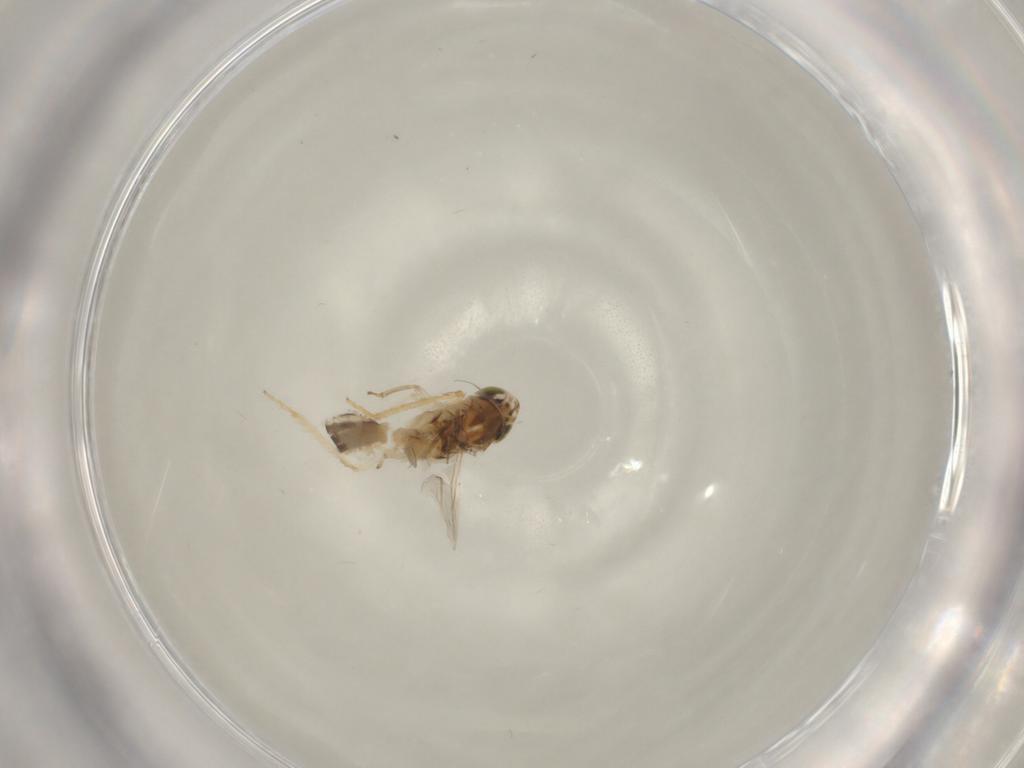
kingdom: Animalia
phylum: Arthropoda
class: Insecta
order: Hemiptera
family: Cicadellidae
